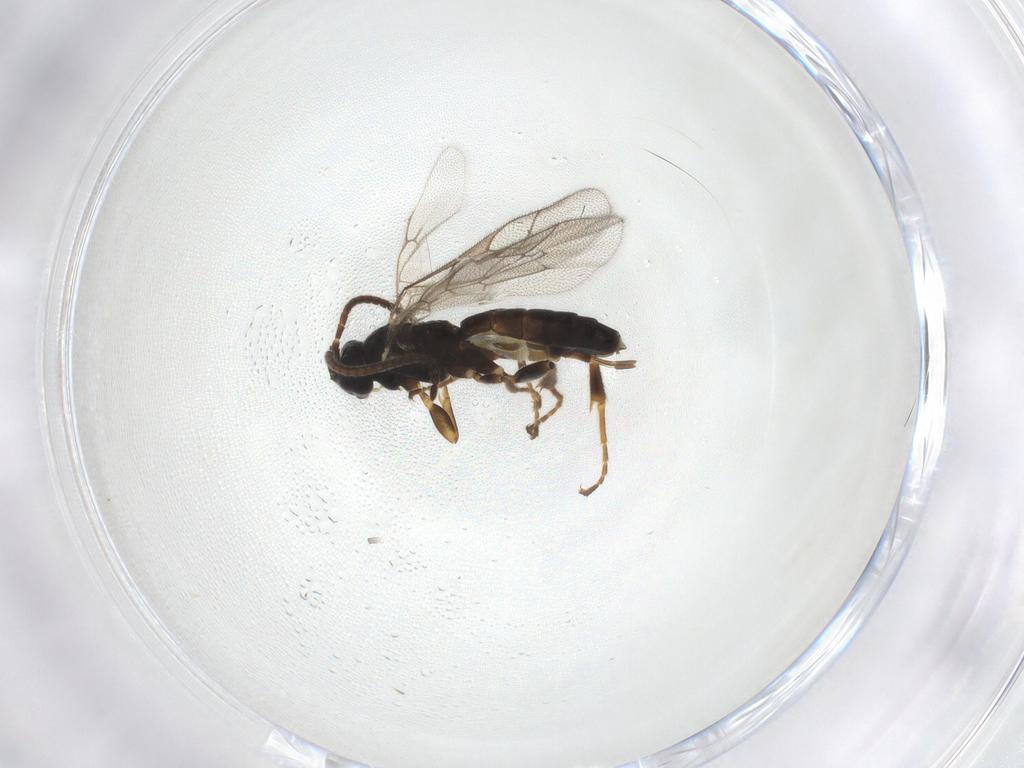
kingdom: Animalia
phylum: Arthropoda
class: Insecta
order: Hymenoptera
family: Ichneumonidae
